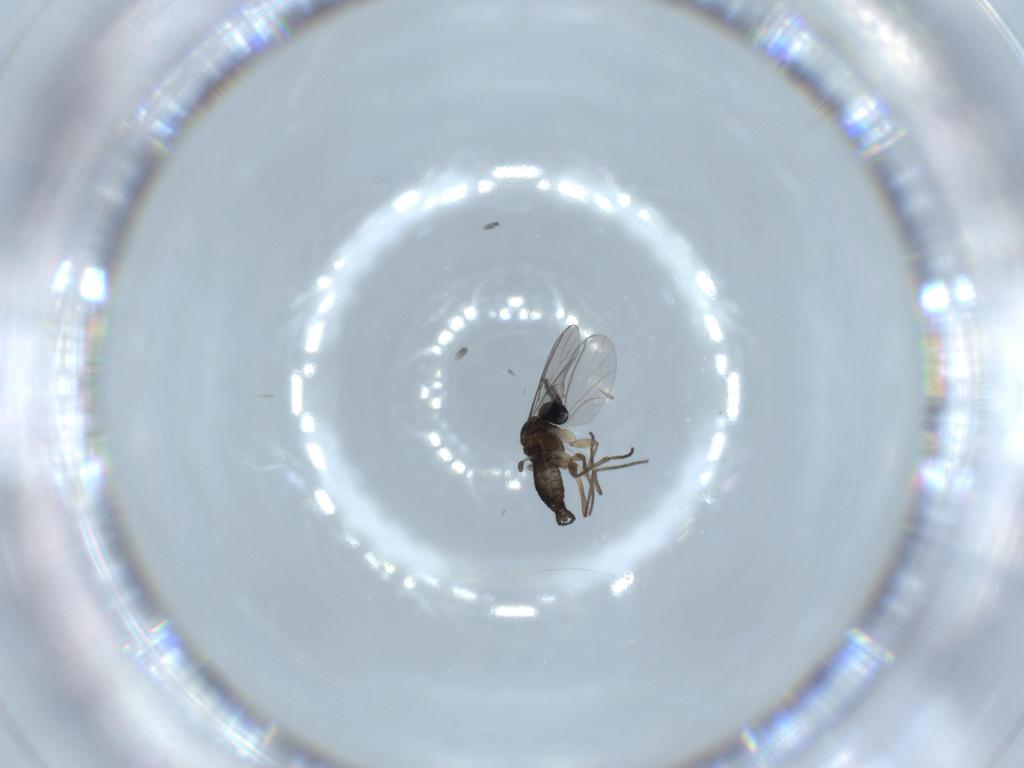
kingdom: Animalia
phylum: Arthropoda
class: Insecta
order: Diptera
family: Sciaridae
